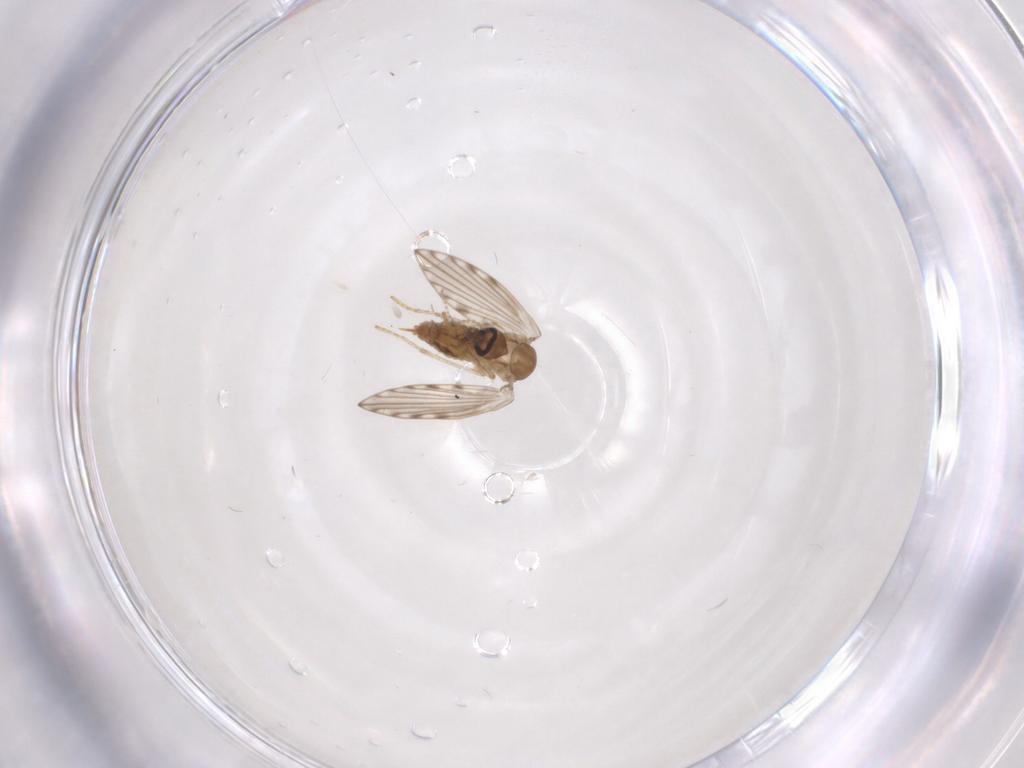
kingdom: Animalia
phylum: Arthropoda
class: Insecta
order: Diptera
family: Psychodidae
